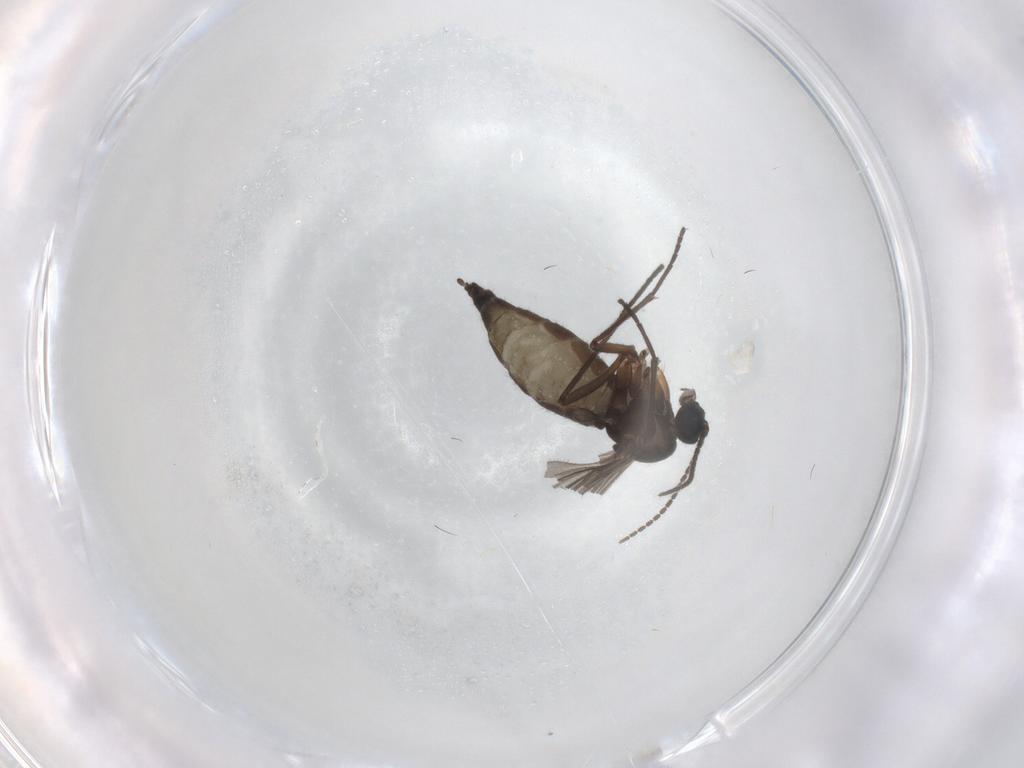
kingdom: Animalia
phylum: Arthropoda
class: Insecta
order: Diptera
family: Sciaridae
